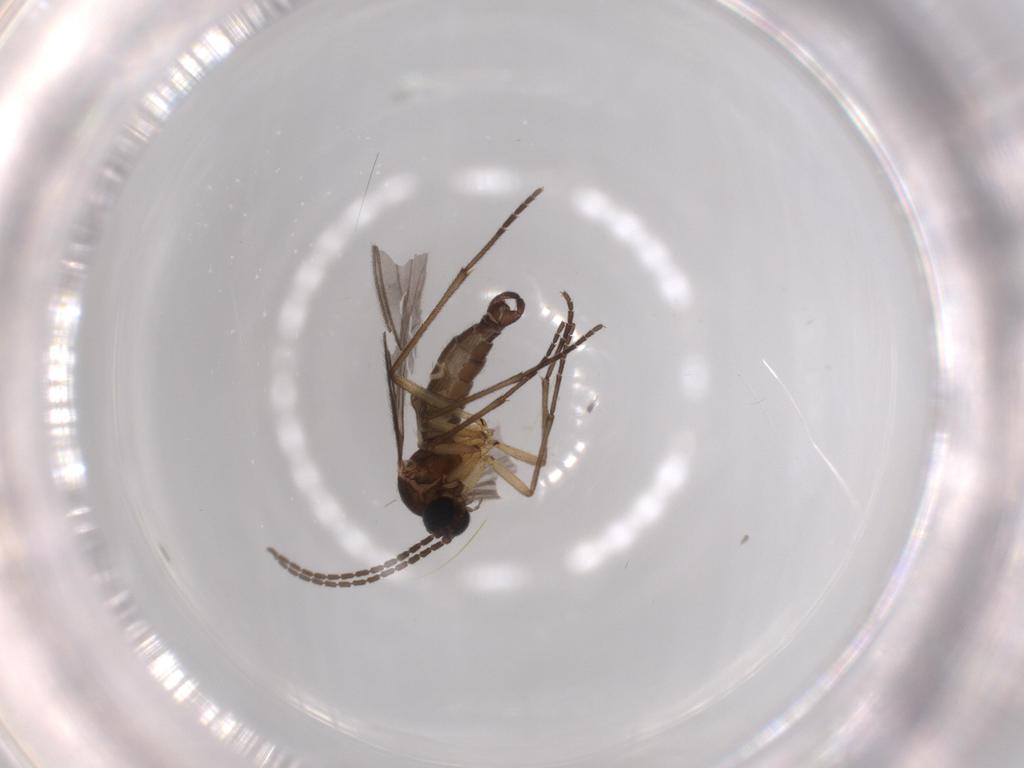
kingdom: Animalia
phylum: Arthropoda
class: Insecta
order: Diptera
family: Sciaridae
